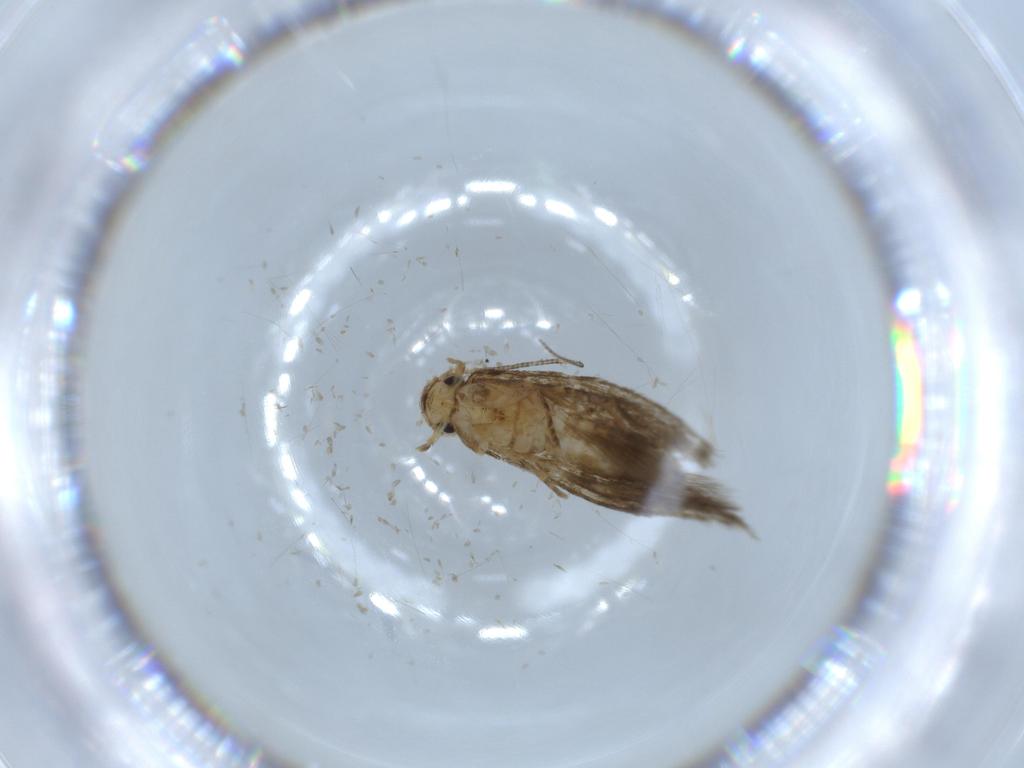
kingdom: Animalia
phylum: Arthropoda
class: Insecta
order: Lepidoptera
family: Tineidae
